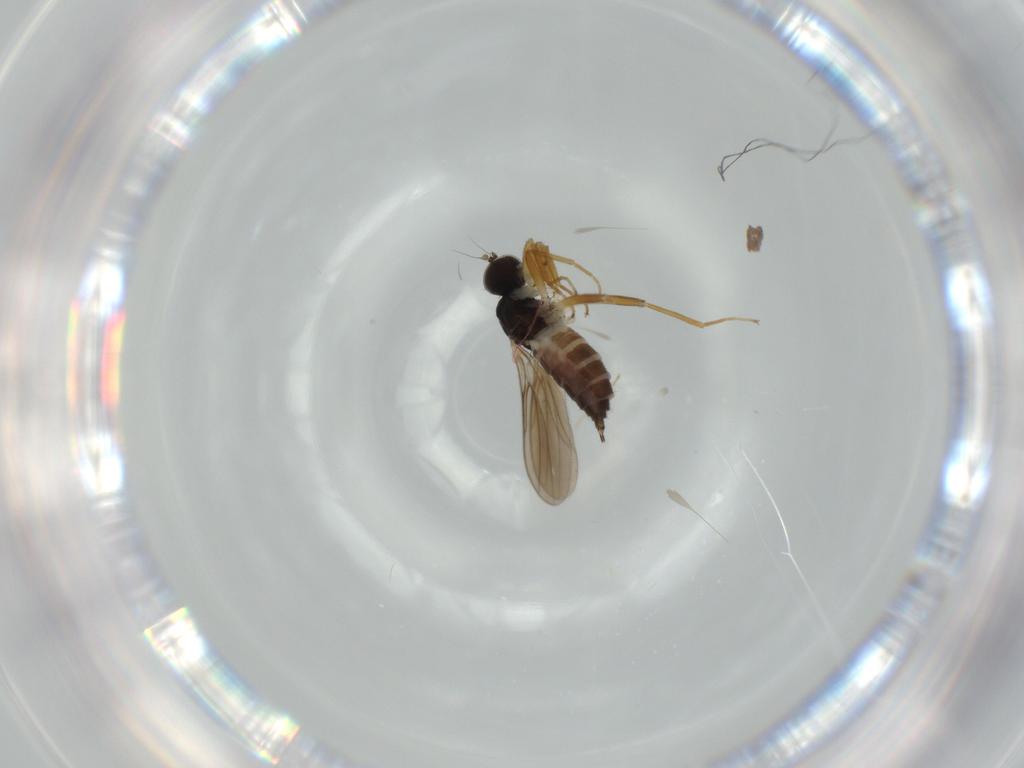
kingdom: Animalia
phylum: Arthropoda
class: Insecta
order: Diptera
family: Hybotidae
